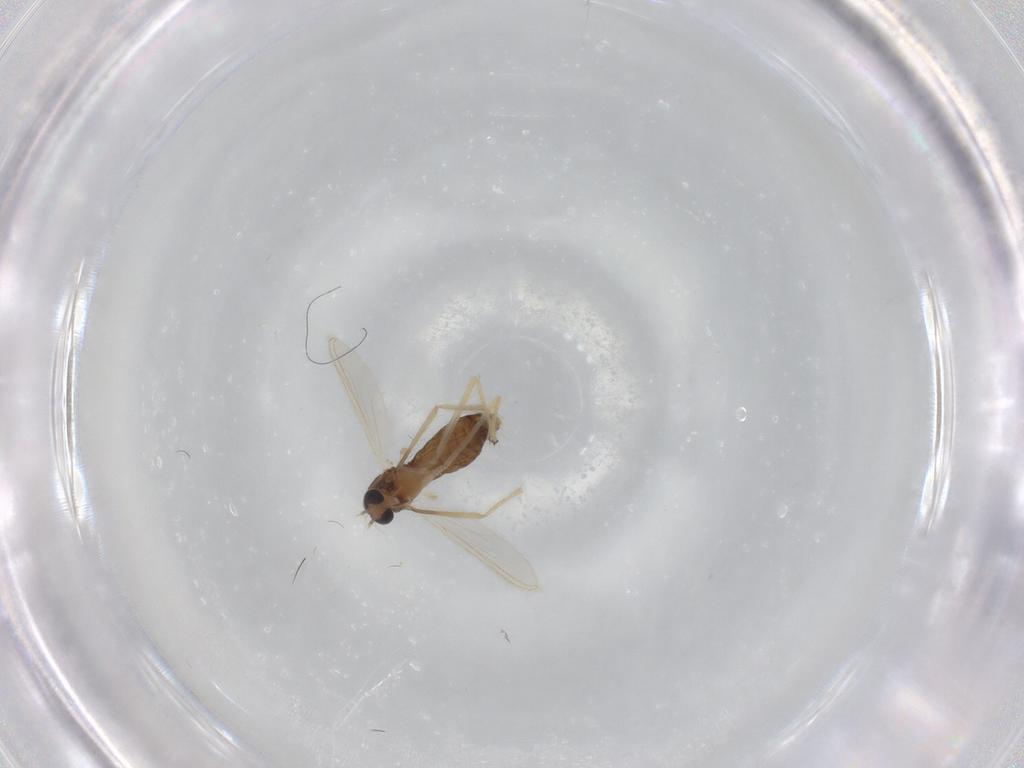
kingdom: Animalia
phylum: Arthropoda
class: Insecta
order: Diptera
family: Chironomidae
